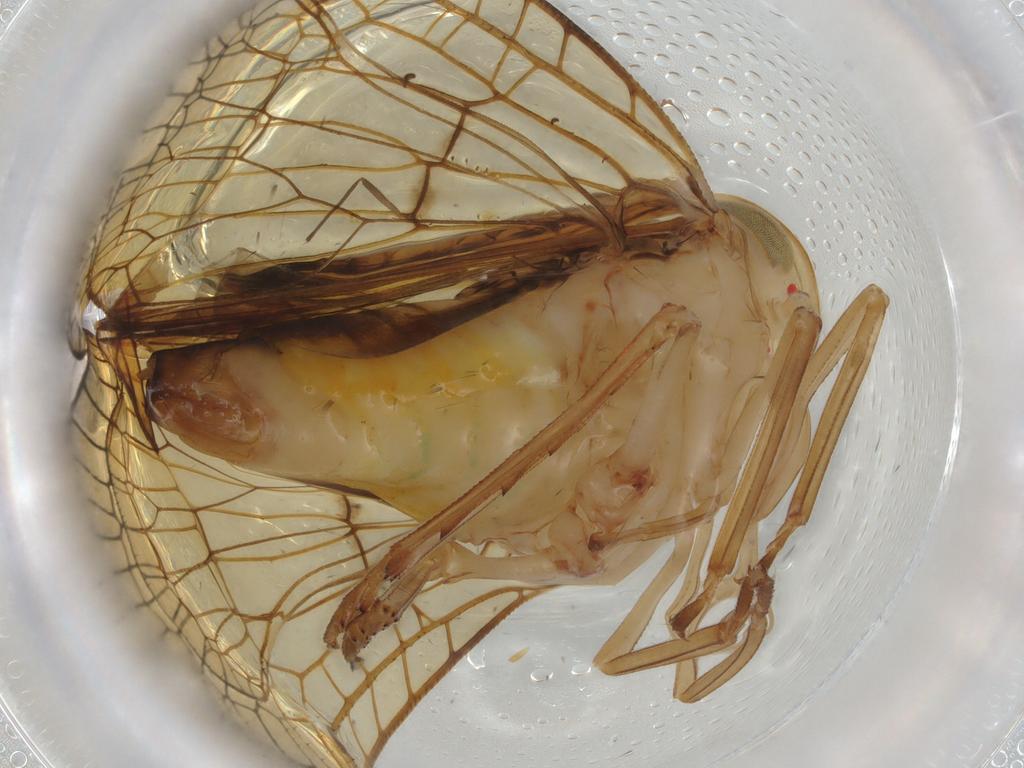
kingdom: Animalia
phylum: Arthropoda
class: Insecta
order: Hemiptera
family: Nogodinidae
